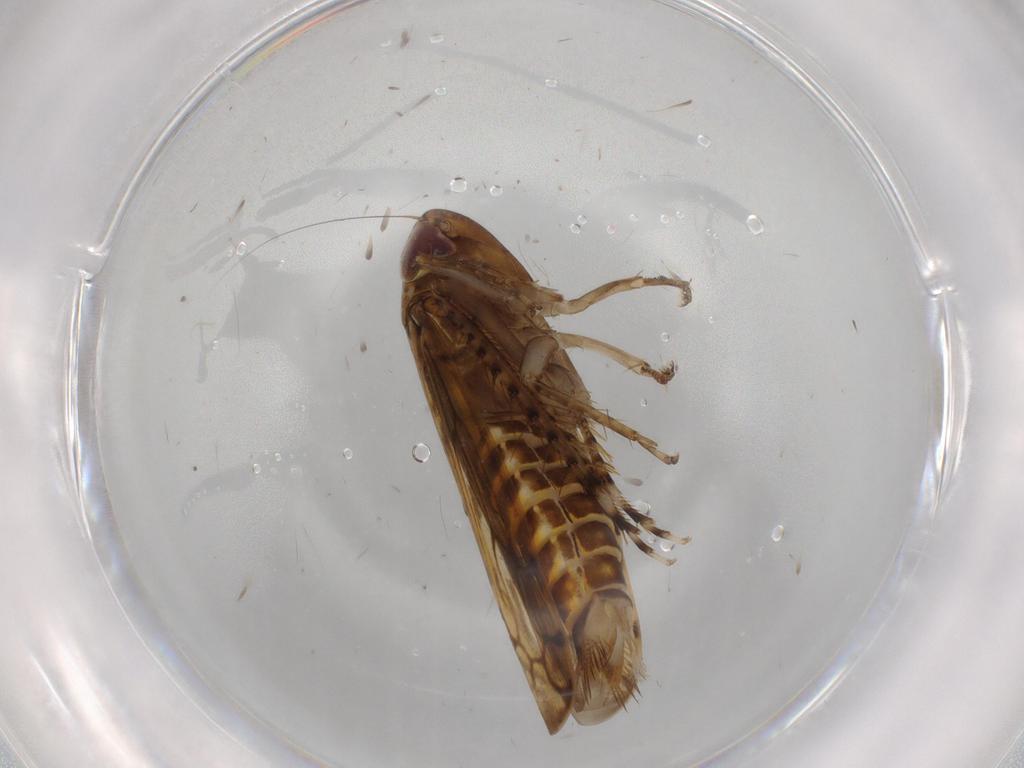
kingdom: Animalia
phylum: Arthropoda
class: Insecta
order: Hemiptera
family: Cicadellidae
